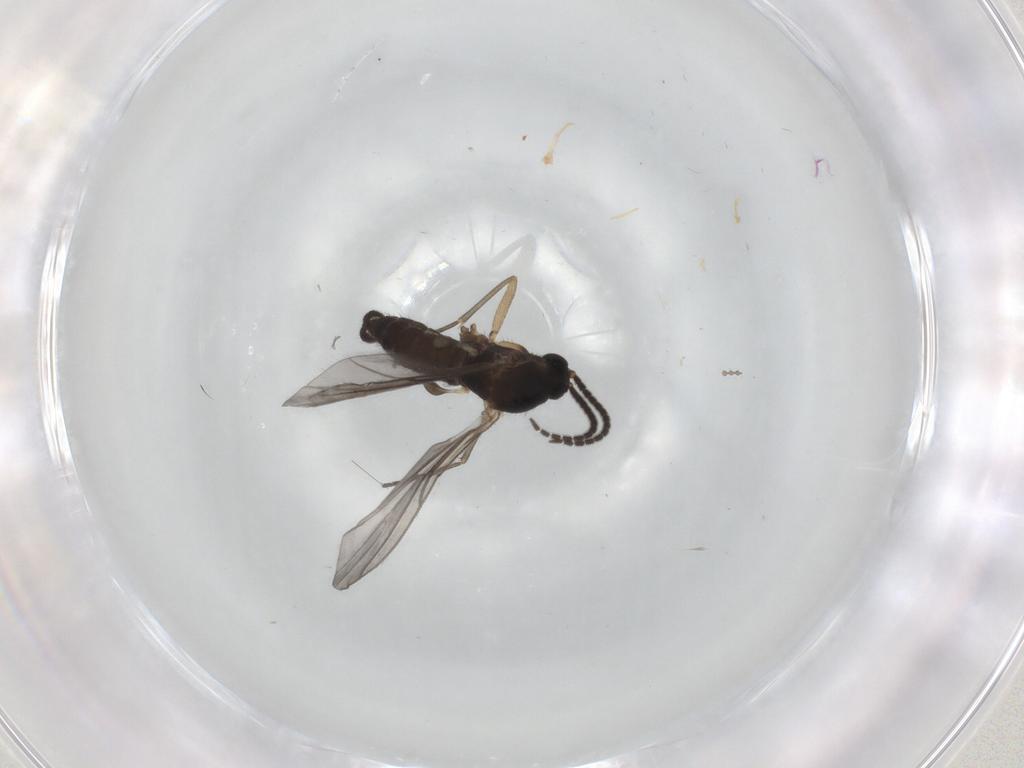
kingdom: Animalia
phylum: Arthropoda
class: Insecta
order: Diptera
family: Sciaridae
